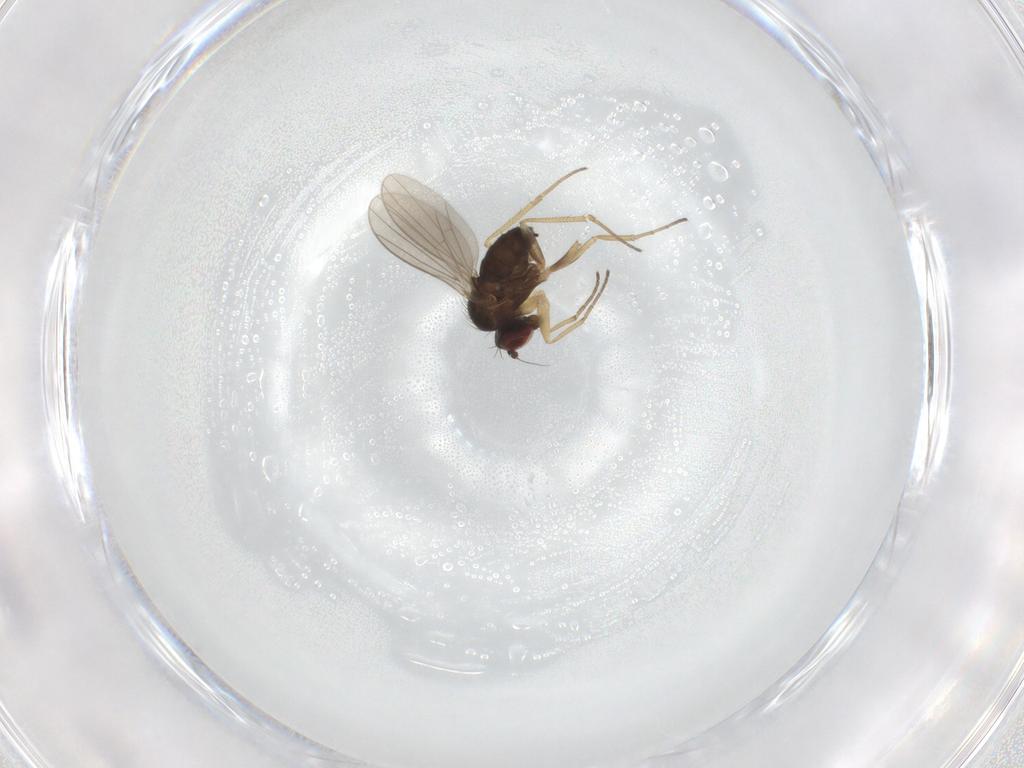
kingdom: Animalia
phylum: Arthropoda
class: Insecta
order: Diptera
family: Dolichopodidae
